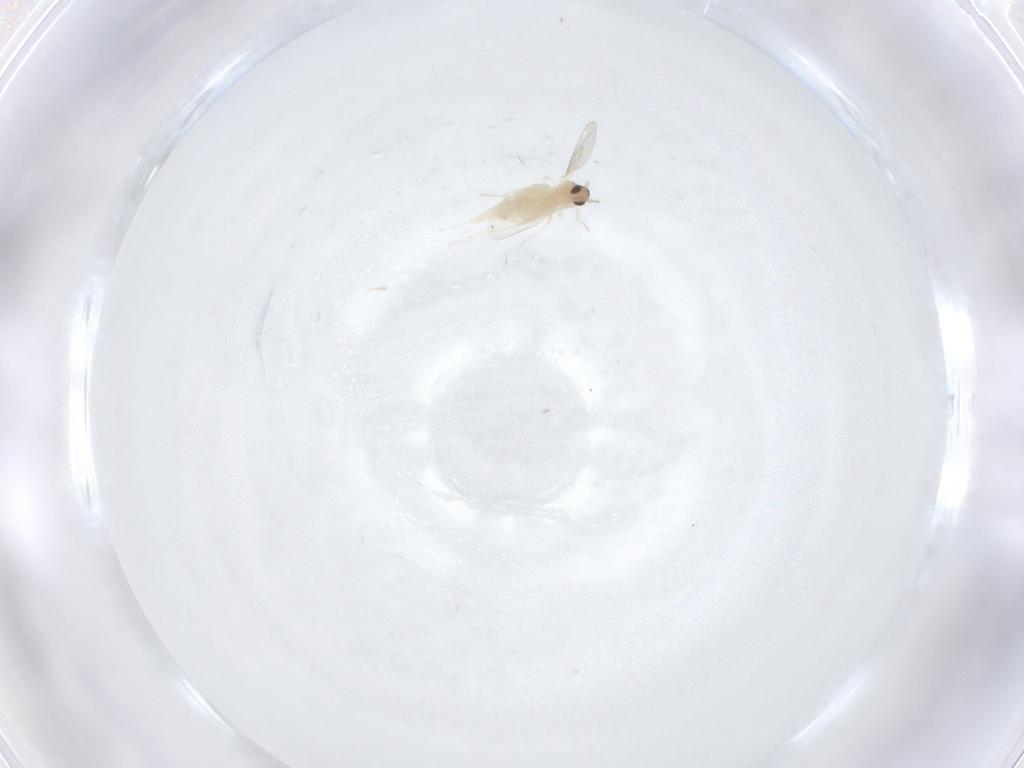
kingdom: Animalia
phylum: Arthropoda
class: Insecta
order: Diptera
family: Cecidomyiidae
